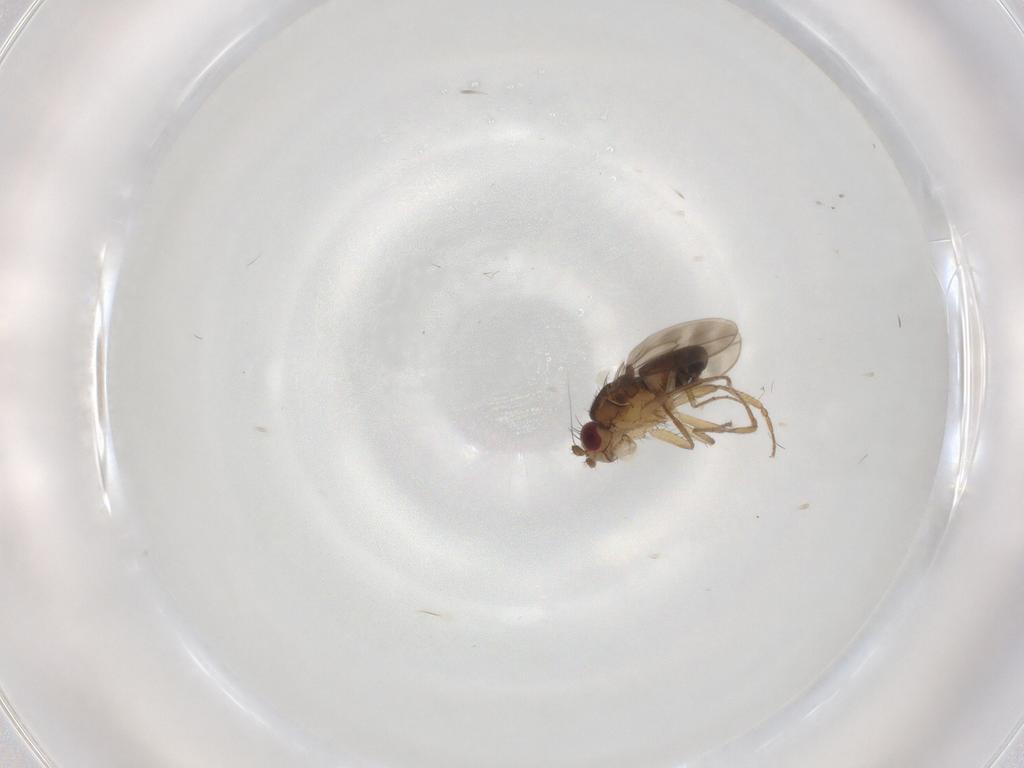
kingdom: Animalia
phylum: Arthropoda
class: Insecta
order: Diptera
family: Sphaeroceridae
